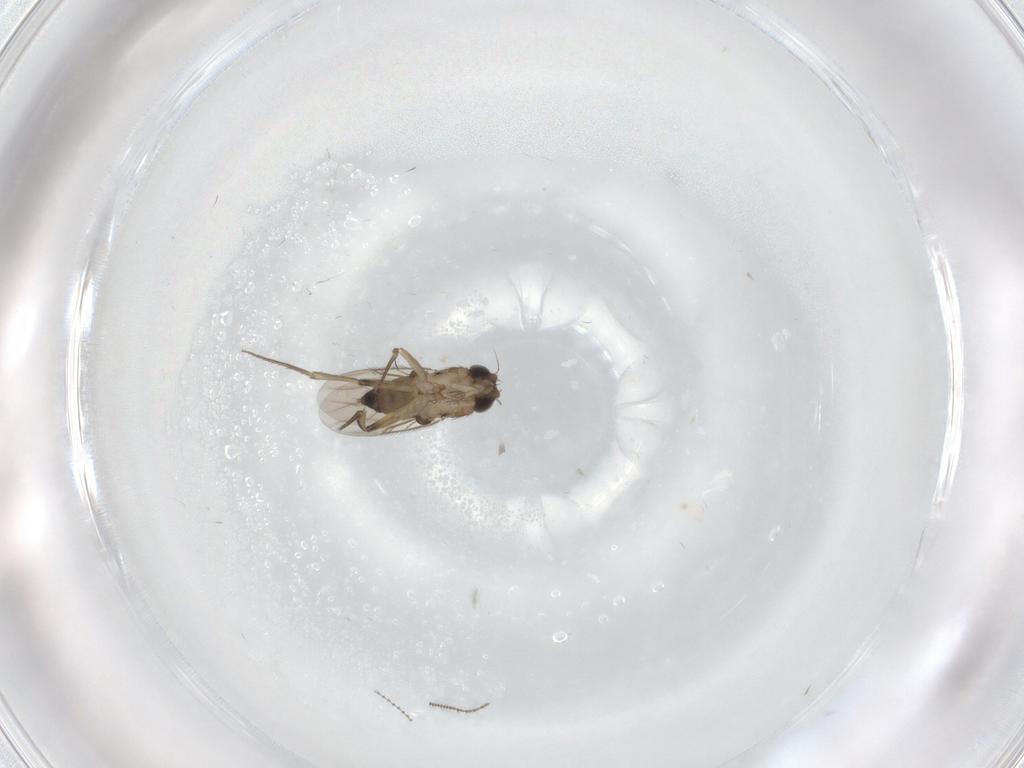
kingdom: Animalia
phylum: Arthropoda
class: Insecta
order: Diptera
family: Phoridae
